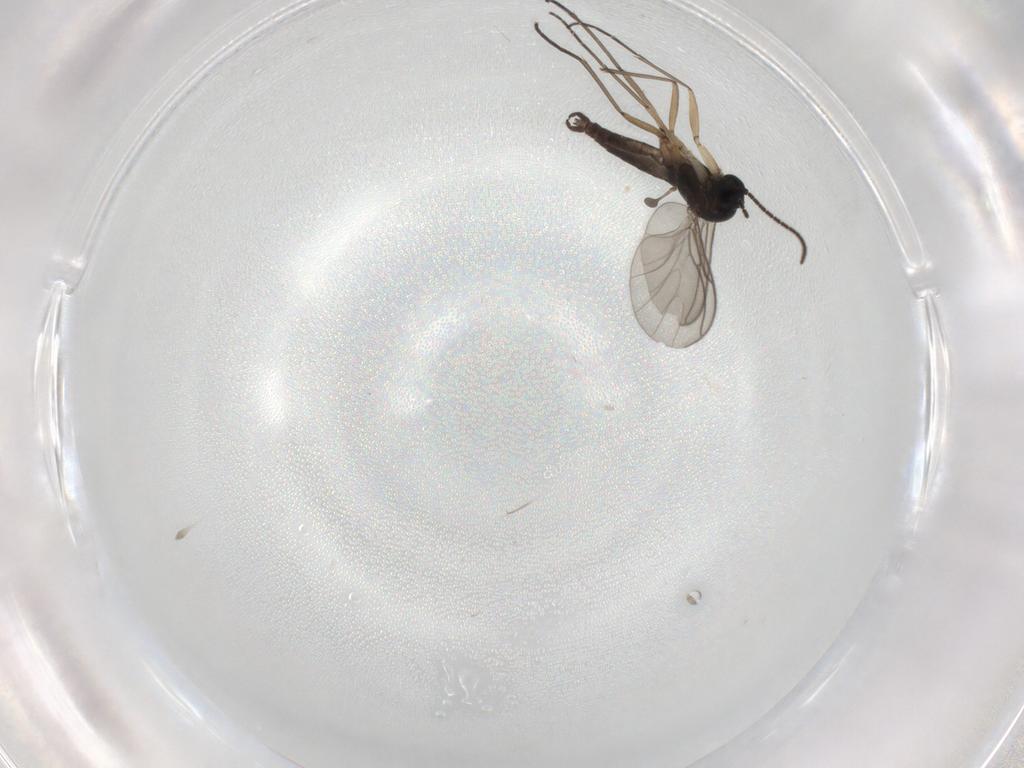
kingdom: Animalia
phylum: Arthropoda
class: Insecta
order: Diptera
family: Sciaridae
